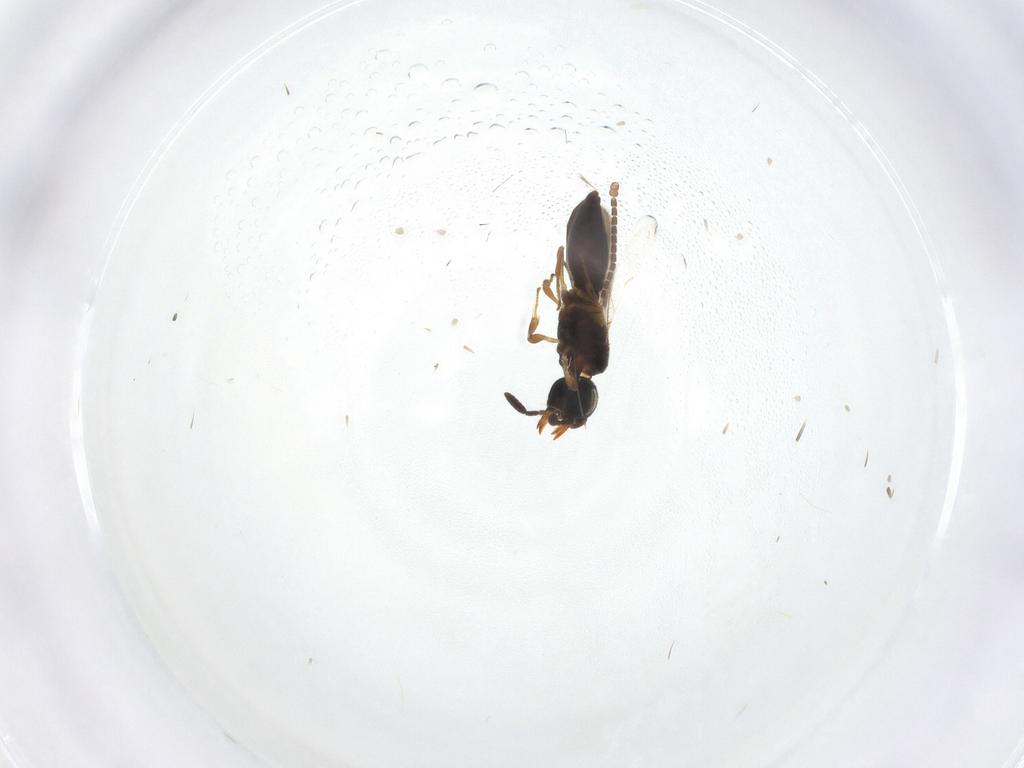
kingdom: Animalia
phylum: Arthropoda
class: Insecta
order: Hymenoptera
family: Scelionidae
